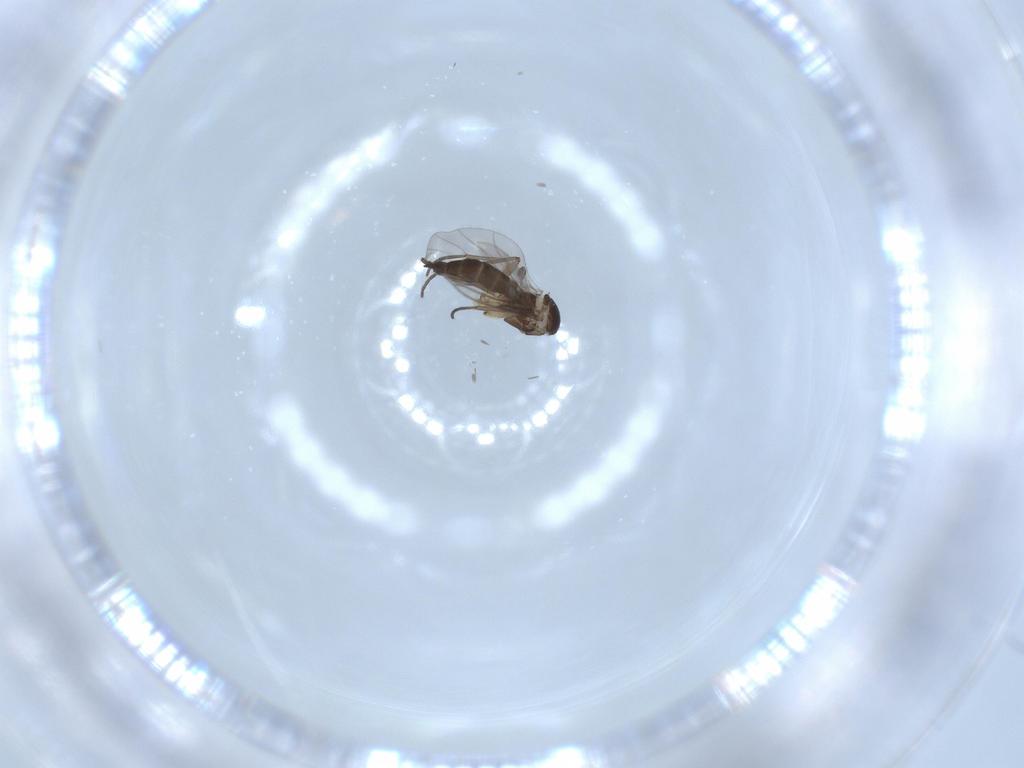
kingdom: Animalia
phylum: Arthropoda
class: Insecta
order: Diptera
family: Sciaridae
